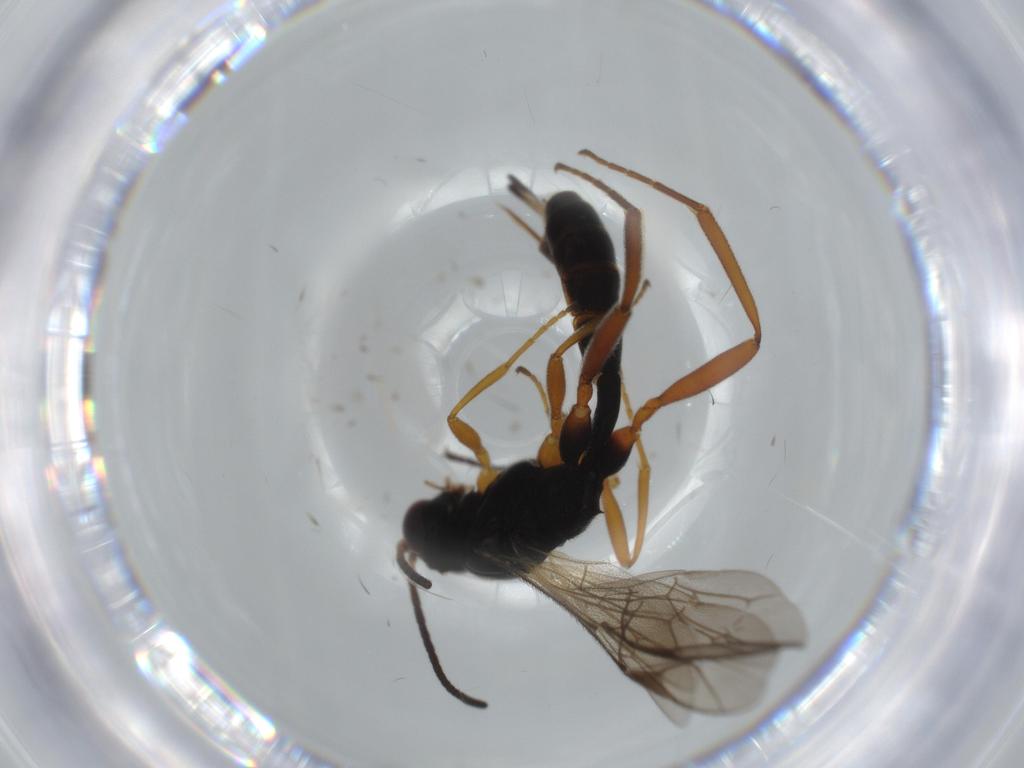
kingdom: Animalia
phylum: Arthropoda
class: Insecta
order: Hymenoptera
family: Ichneumonidae
